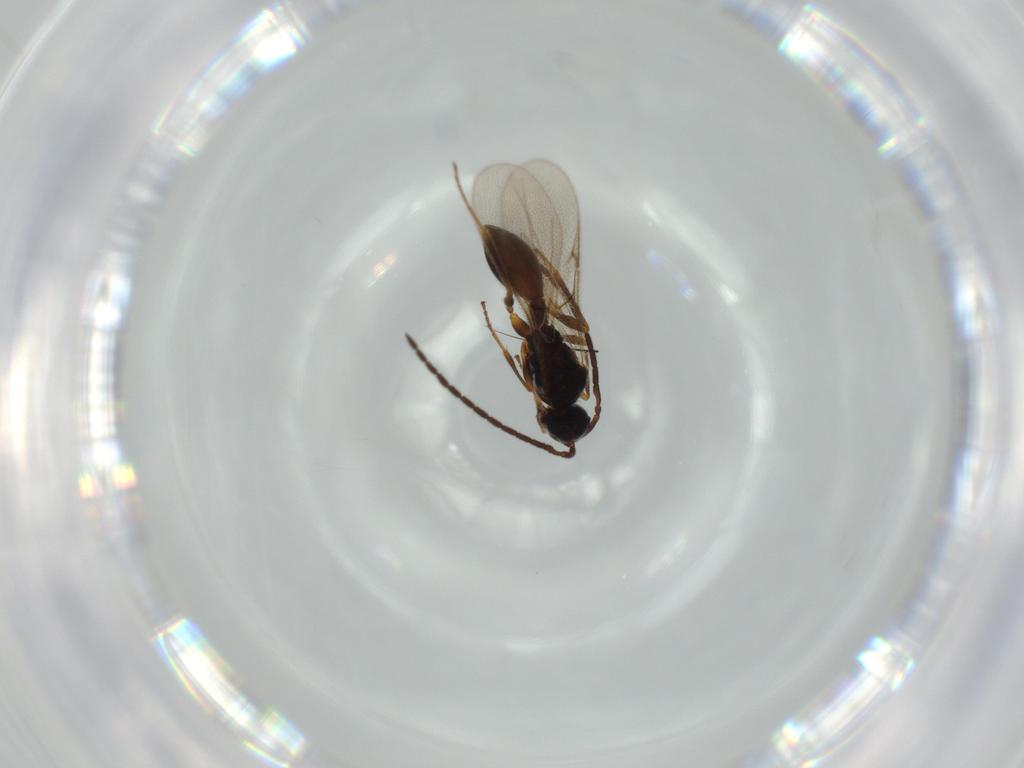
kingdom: Animalia
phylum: Arthropoda
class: Insecta
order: Hymenoptera
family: Ichneumonidae
